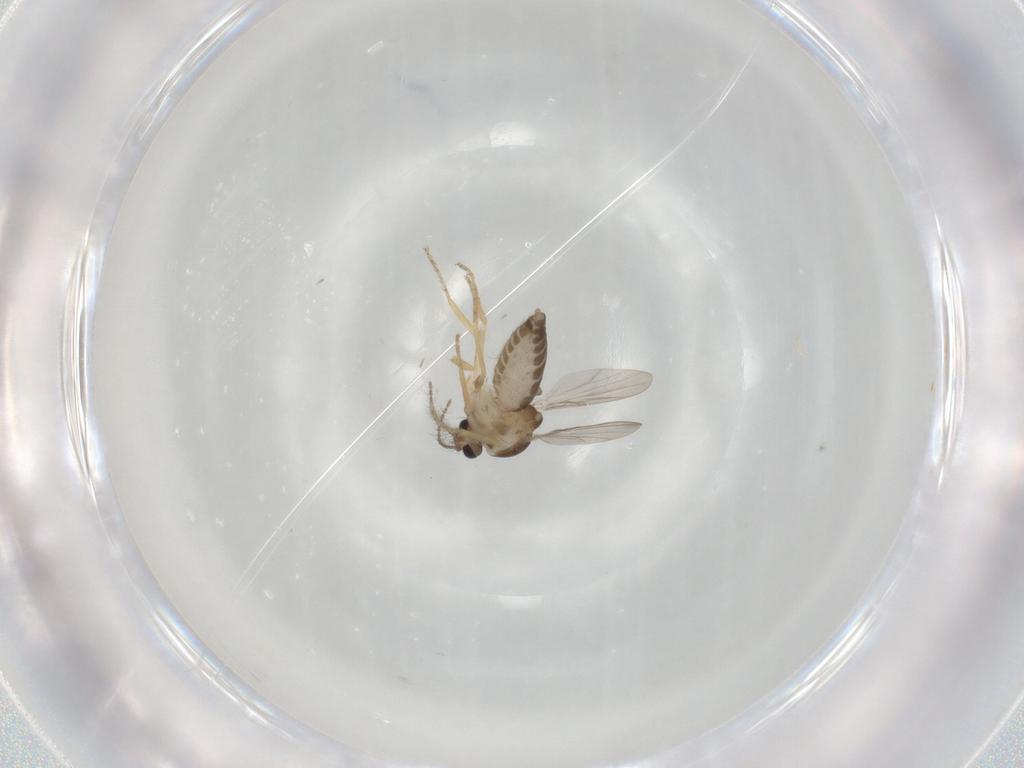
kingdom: Animalia
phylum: Arthropoda
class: Insecta
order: Diptera
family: Ceratopogonidae
